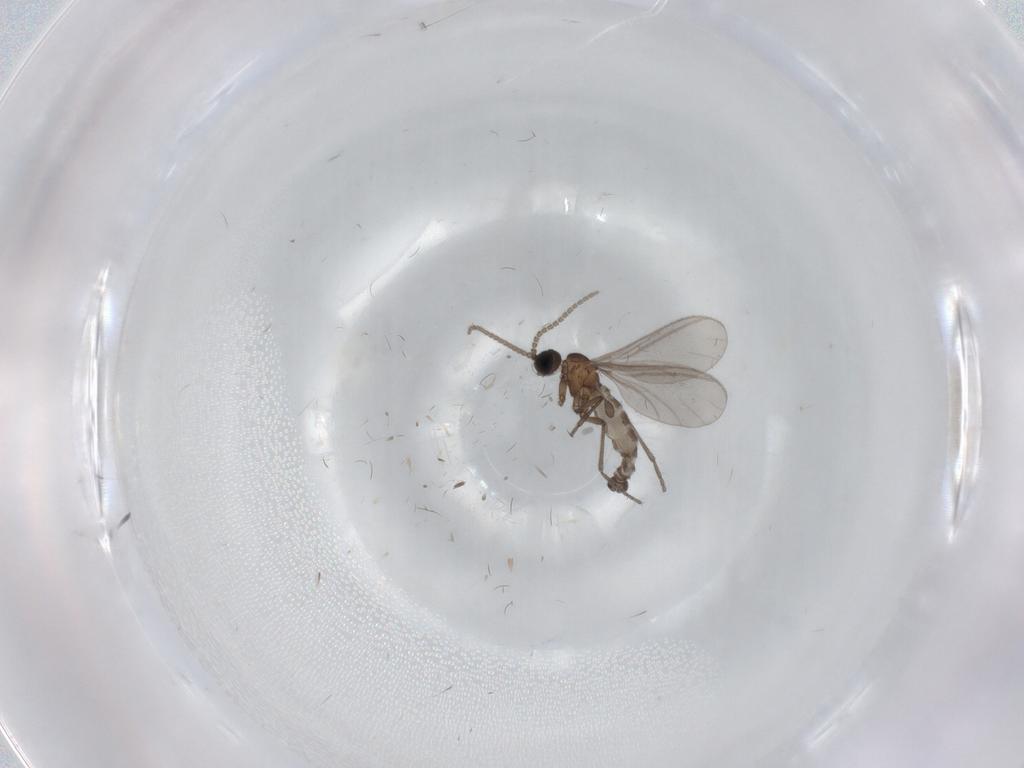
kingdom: Animalia
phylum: Arthropoda
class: Insecta
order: Diptera
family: Cecidomyiidae
